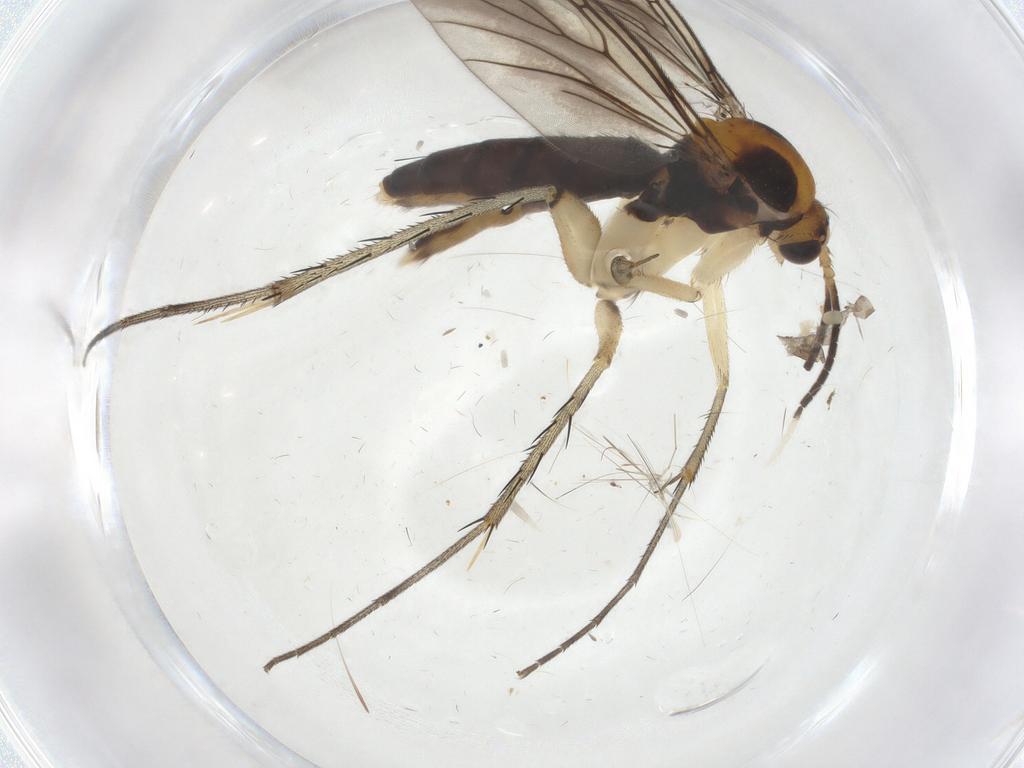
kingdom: Animalia
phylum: Arthropoda
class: Insecta
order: Diptera
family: Mycetophilidae
